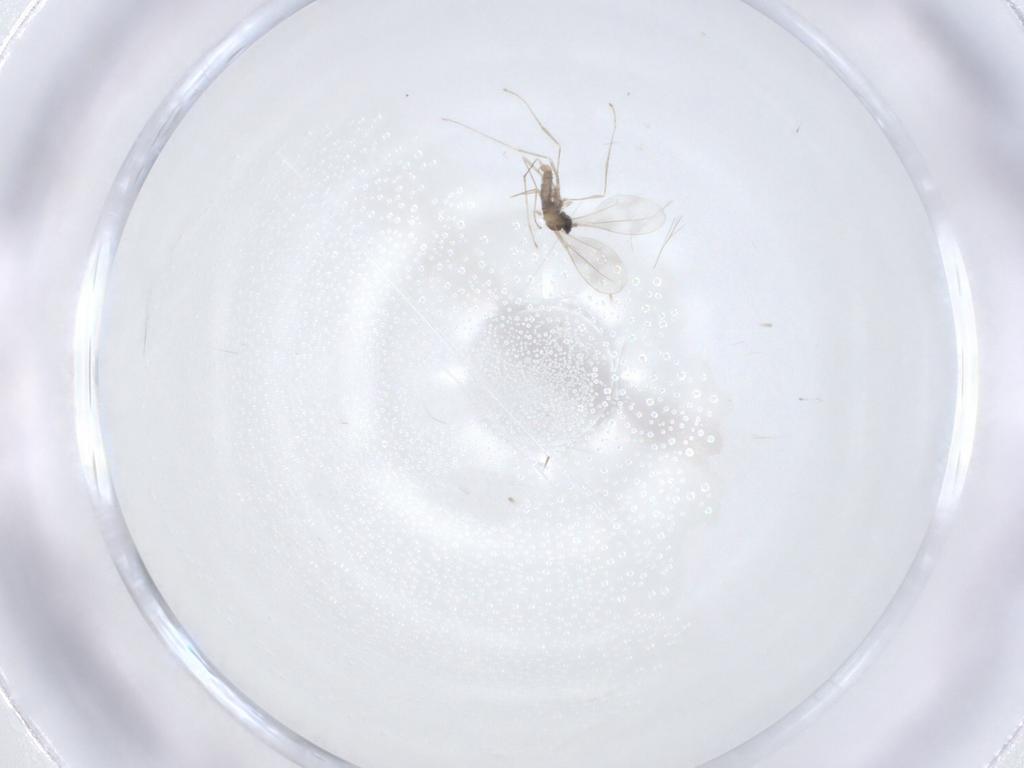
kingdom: Animalia
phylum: Arthropoda
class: Insecta
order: Diptera
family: Cecidomyiidae
